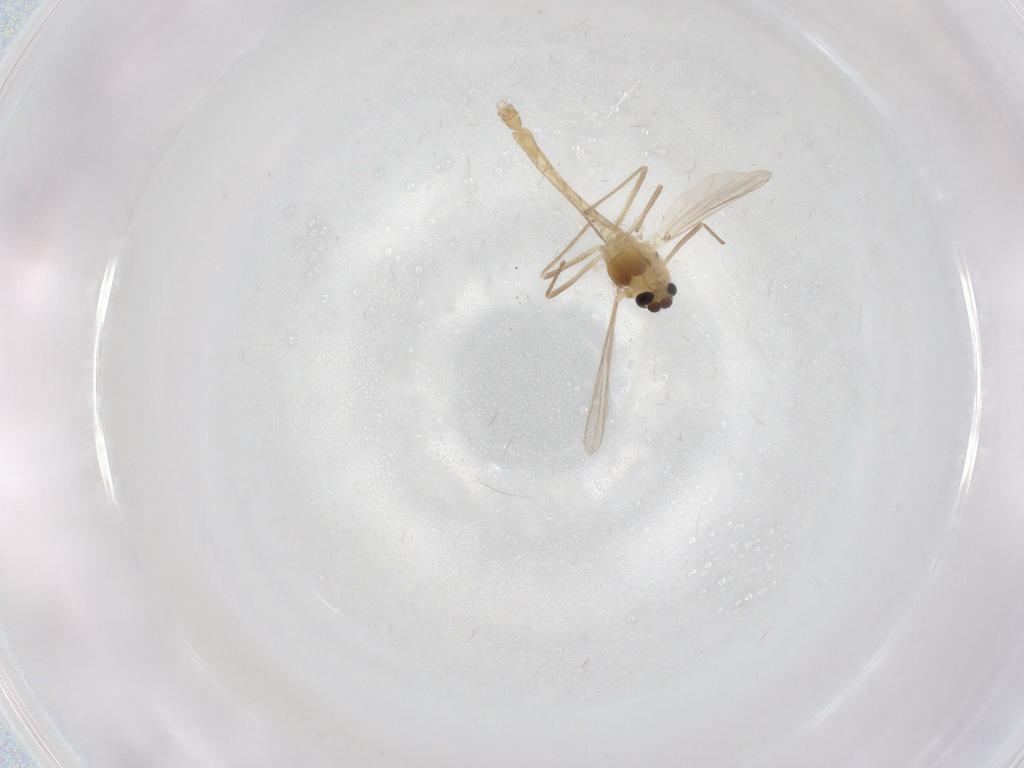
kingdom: Animalia
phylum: Arthropoda
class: Insecta
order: Diptera
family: Chironomidae
